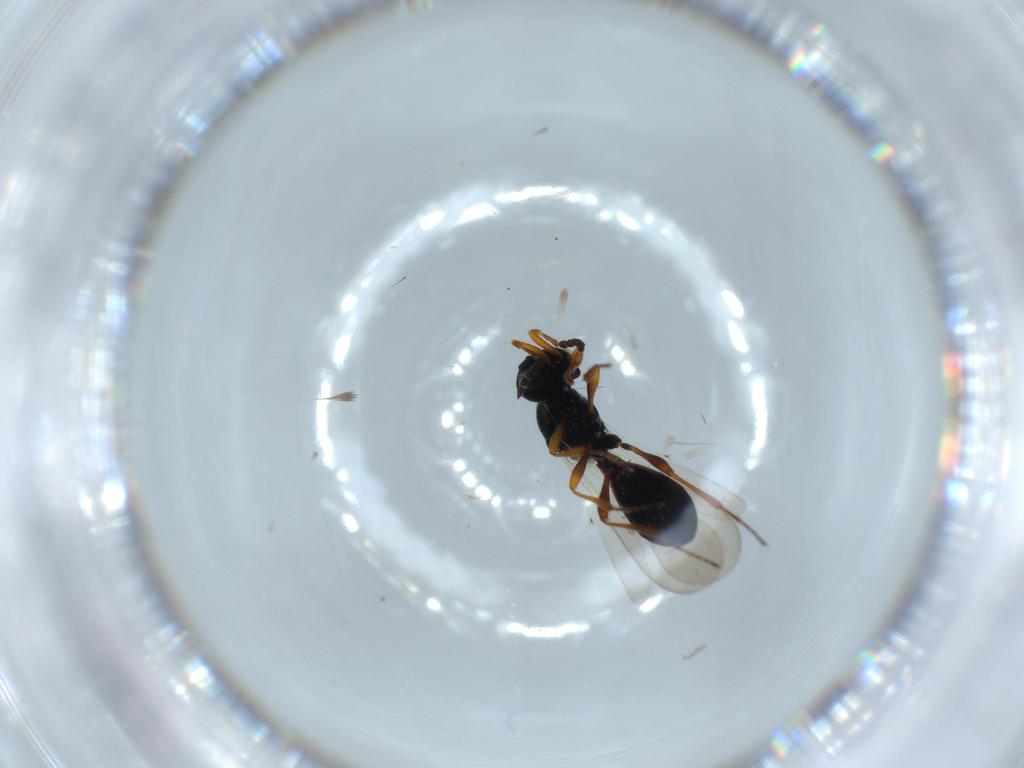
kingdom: Animalia
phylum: Arthropoda
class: Insecta
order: Hymenoptera
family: Platygastridae
